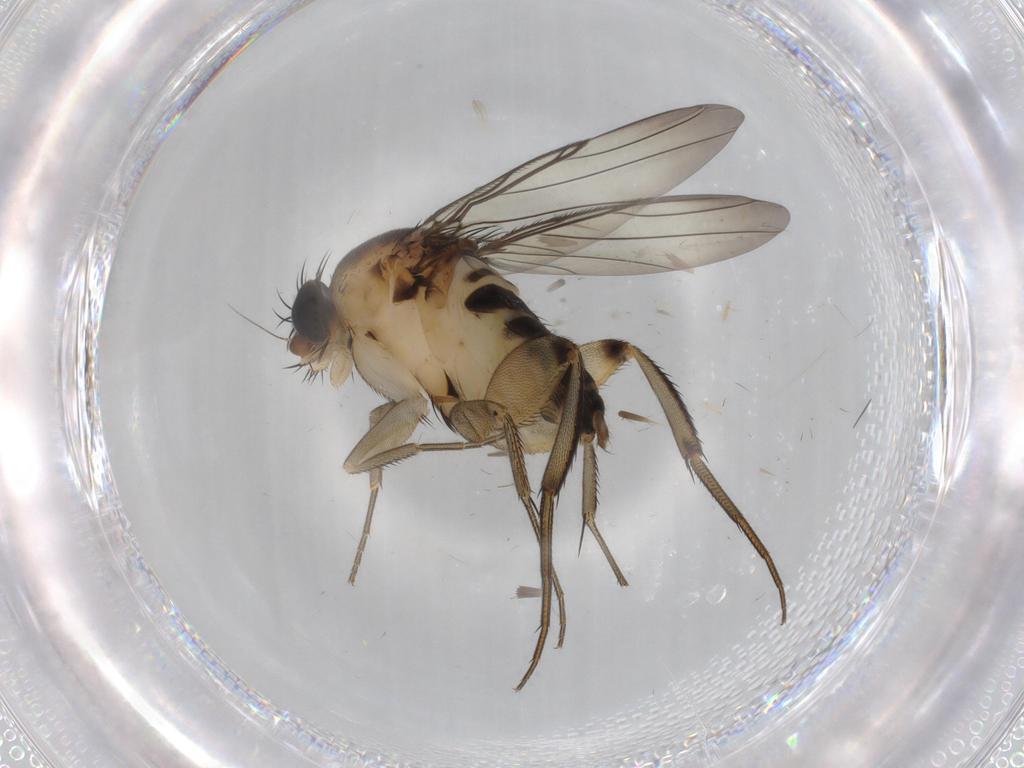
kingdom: Animalia
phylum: Arthropoda
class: Insecta
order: Diptera
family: Phoridae
